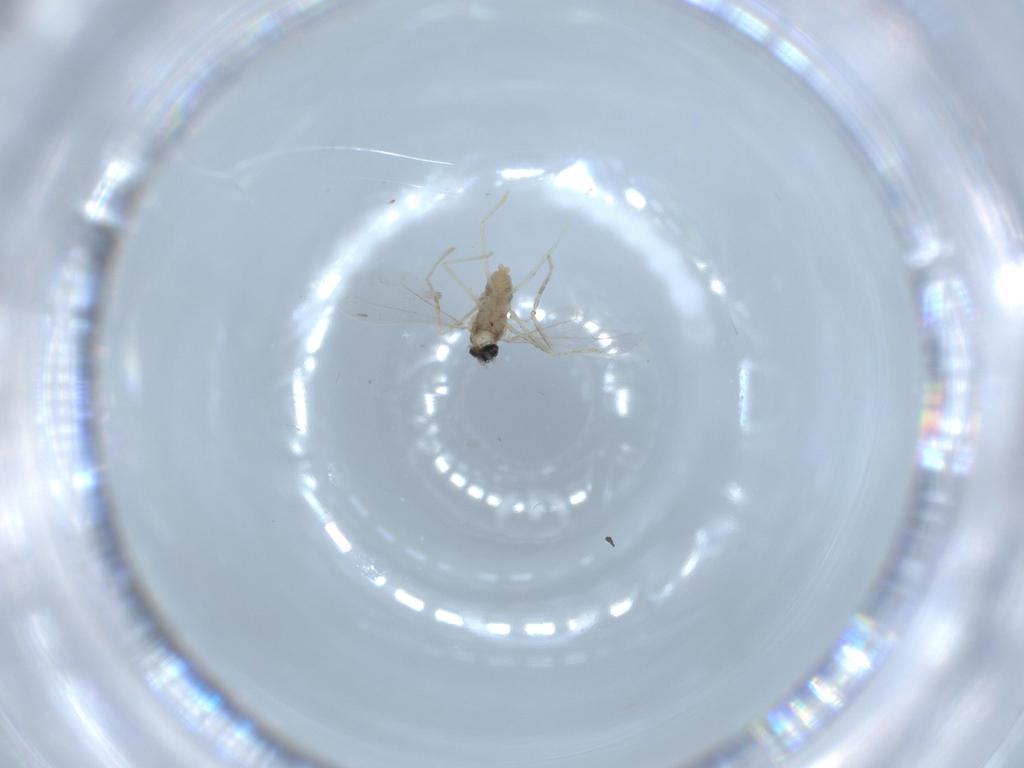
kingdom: Animalia
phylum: Arthropoda
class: Insecta
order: Diptera
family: Cecidomyiidae
